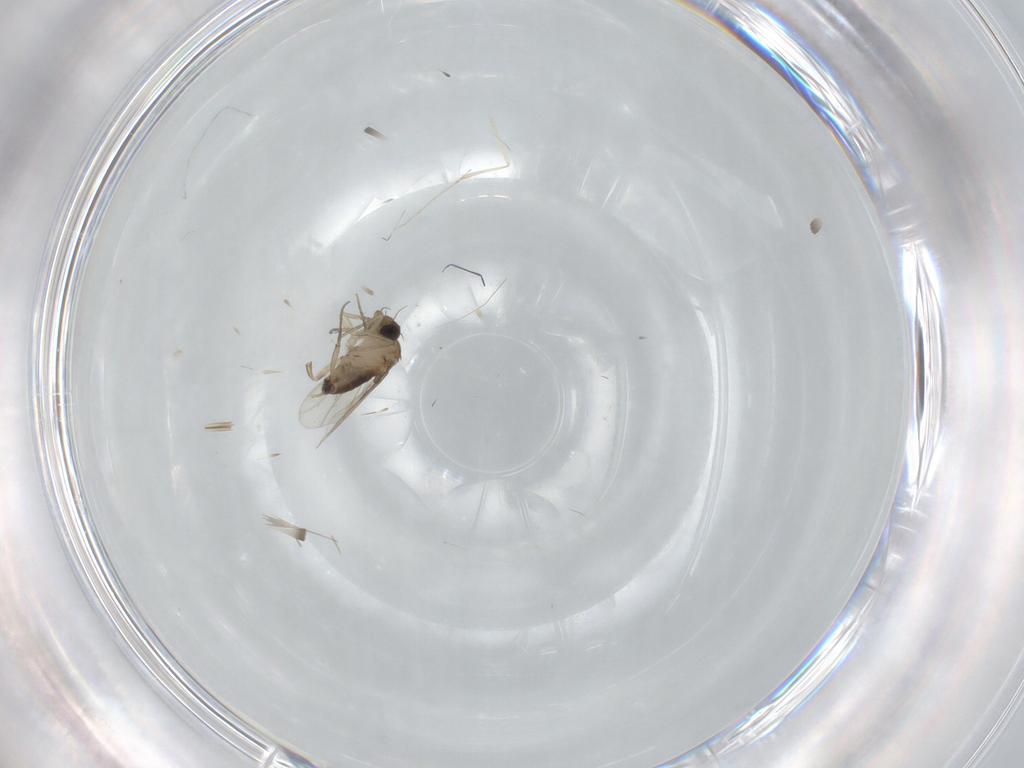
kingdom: Animalia
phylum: Arthropoda
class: Insecta
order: Diptera
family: Phoridae
